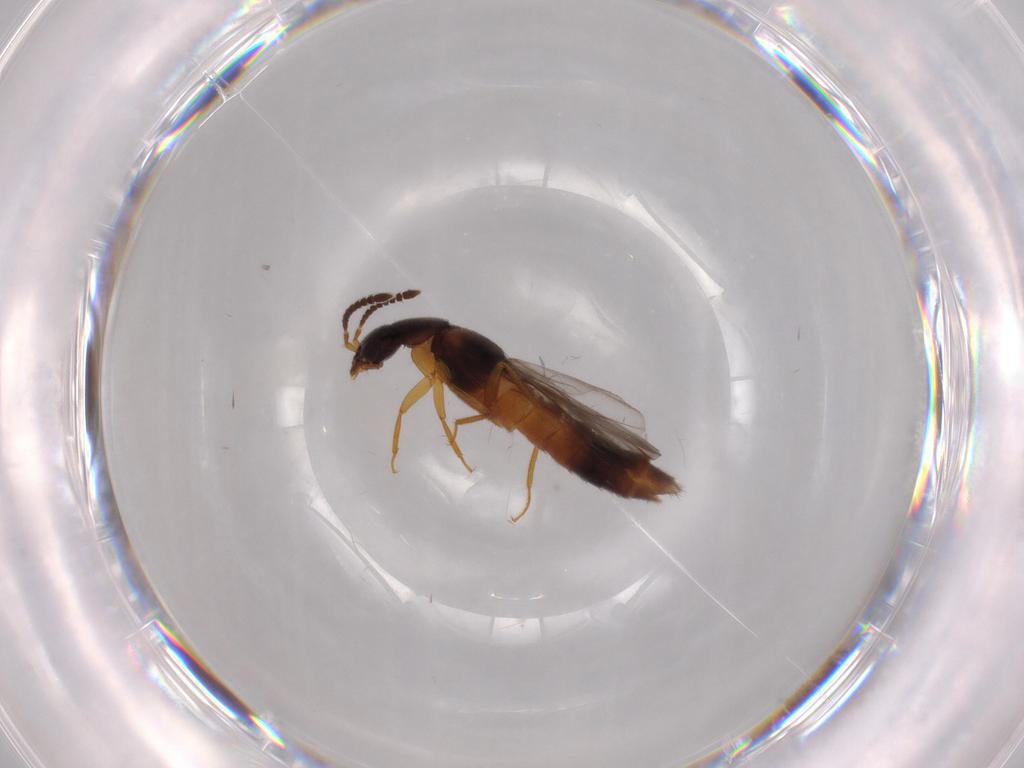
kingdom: Animalia
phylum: Arthropoda
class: Insecta
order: Coleoptera
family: Staphylinidae
